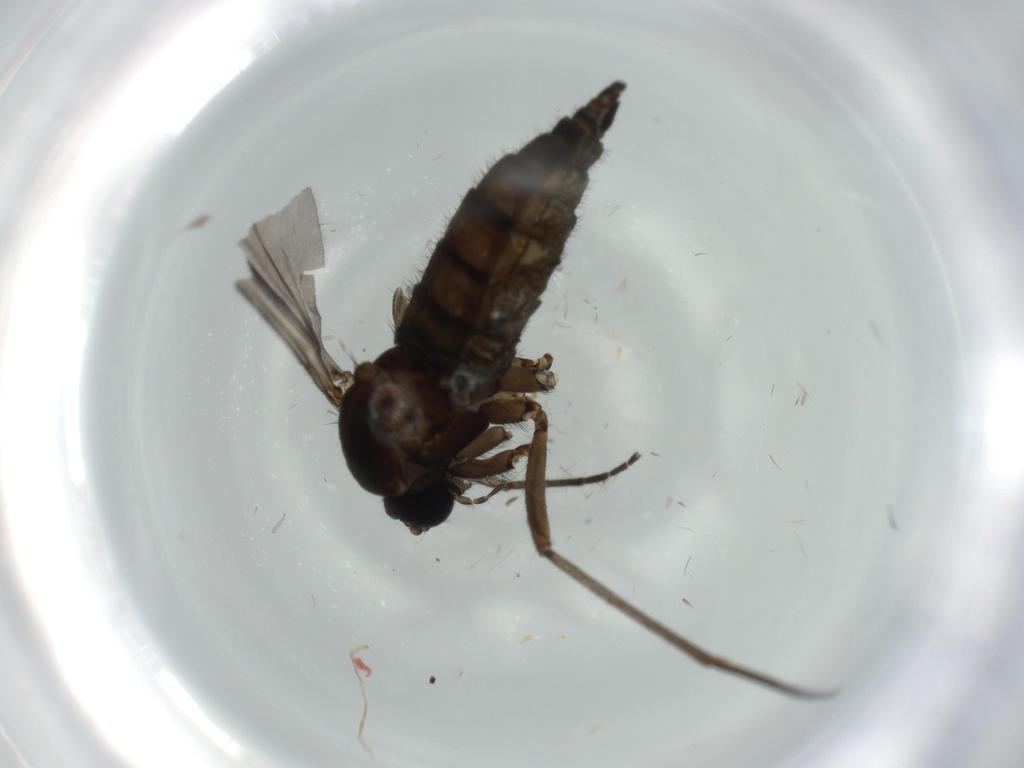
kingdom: Animalia
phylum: Arthropoda
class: Insecta
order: Diptera
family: Sciaridae
